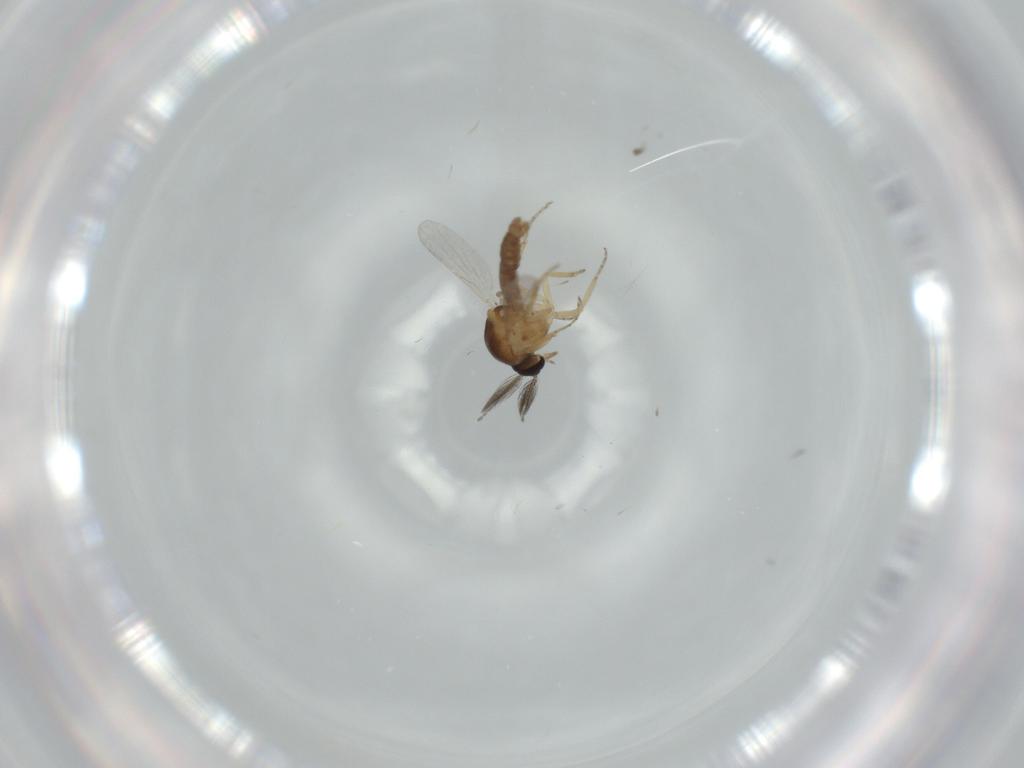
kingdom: Animalia
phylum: Arthropoda
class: Insecta
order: Diptera
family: Ceratopogonidae
